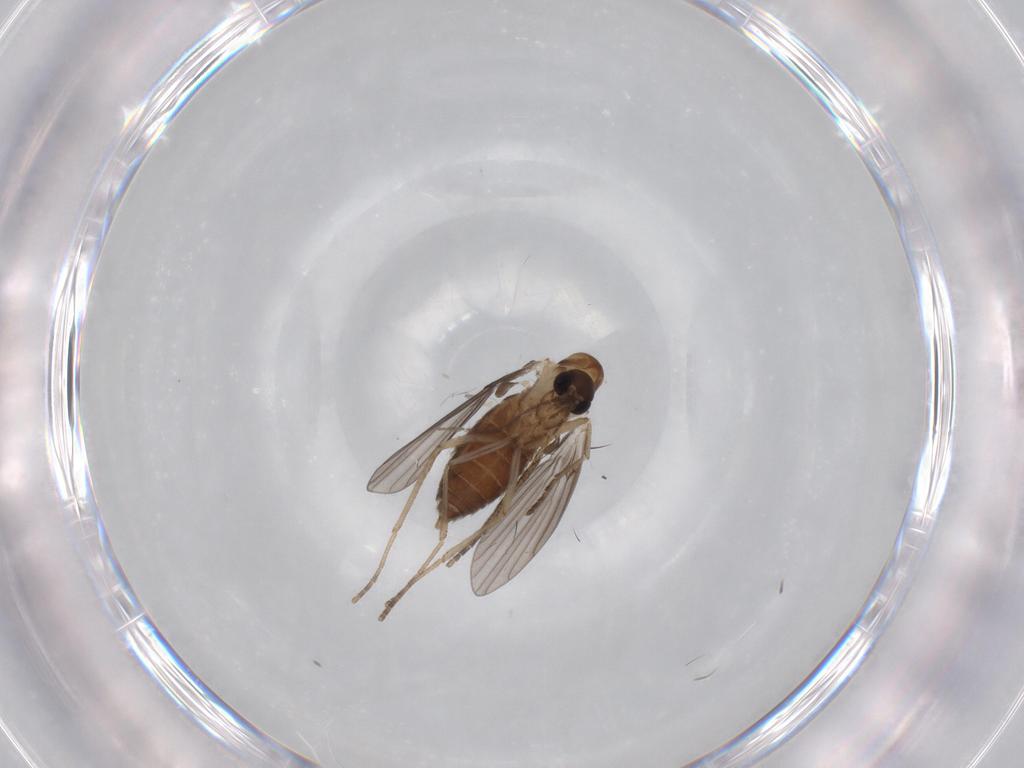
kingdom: Animalia
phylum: Arthropoda
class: Insecta
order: Diptera
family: Cecidomyiidae
